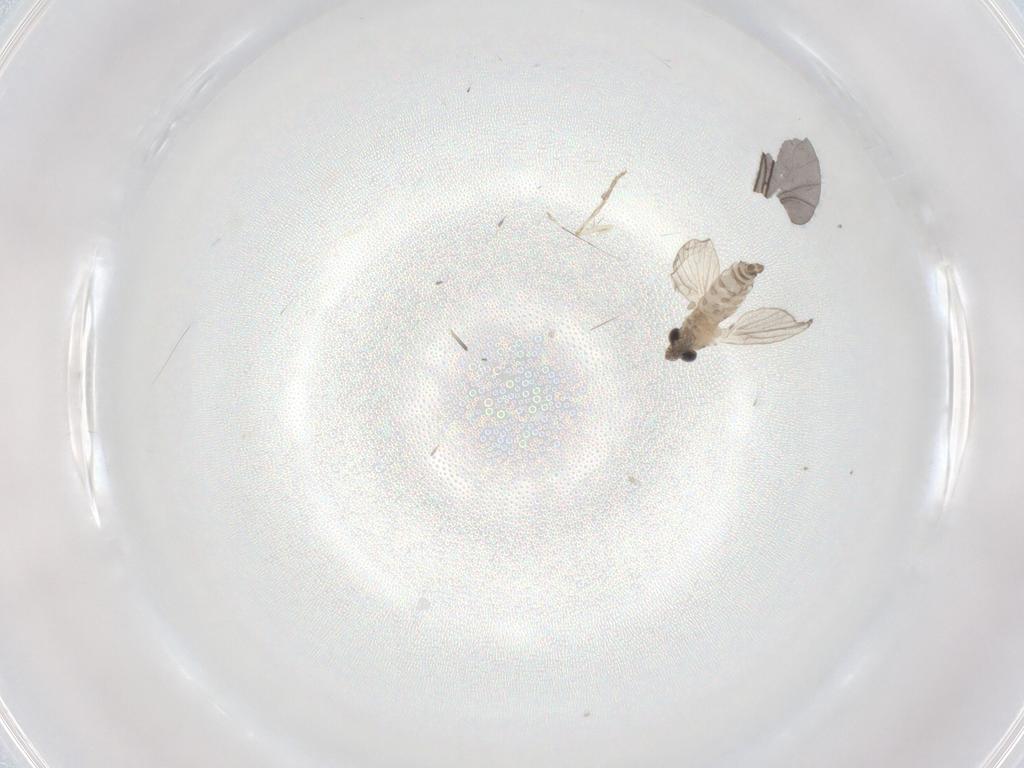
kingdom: Animalia
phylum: Arthropoda
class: Insecta
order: Diptera
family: Sciaridae
